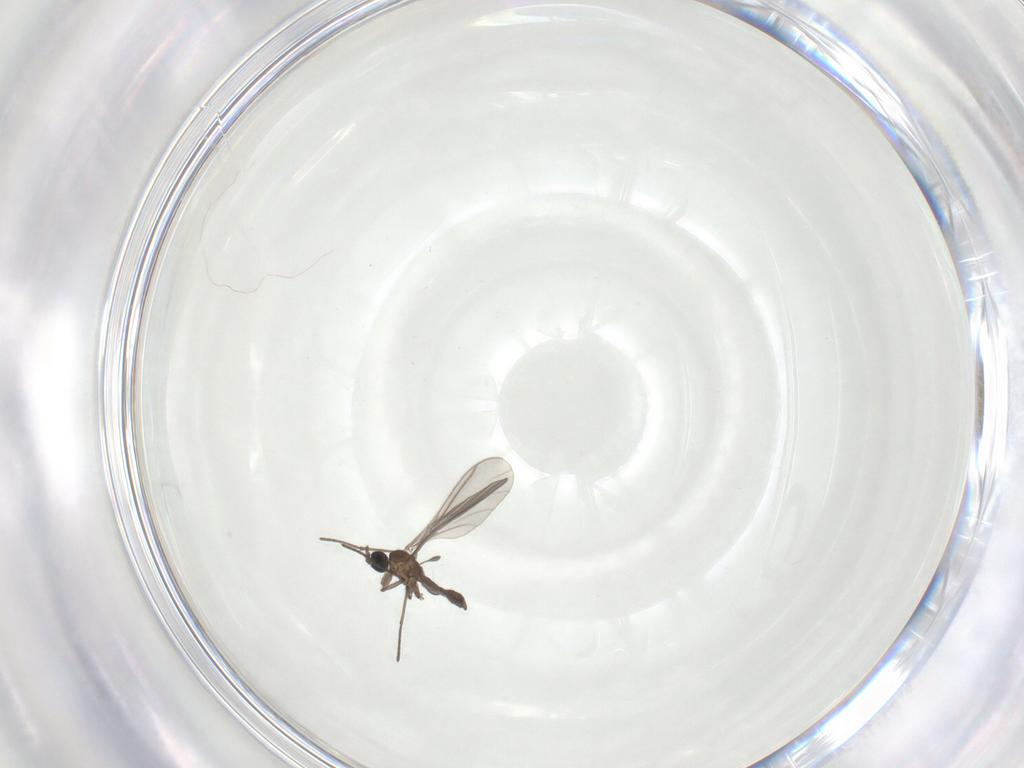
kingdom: Animalia
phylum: Arthropoda
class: Insecta
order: Diptera
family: Sciaridae
